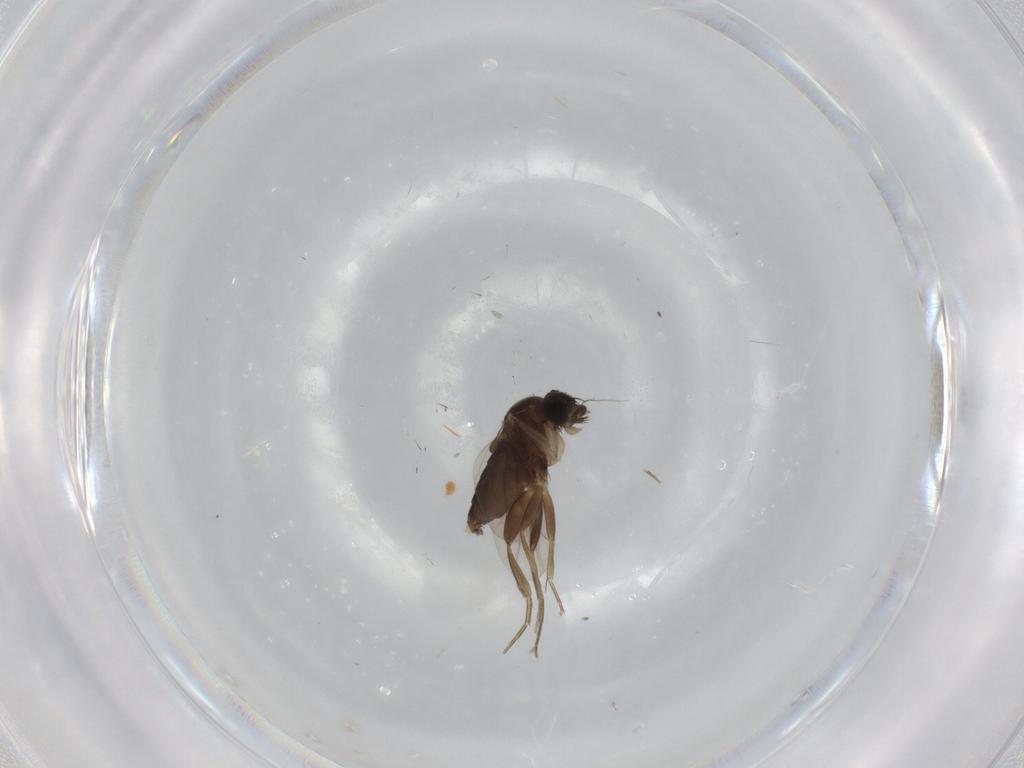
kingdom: Animalia
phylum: Arthropoda
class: Insecta
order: Diptera
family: Phoridae
